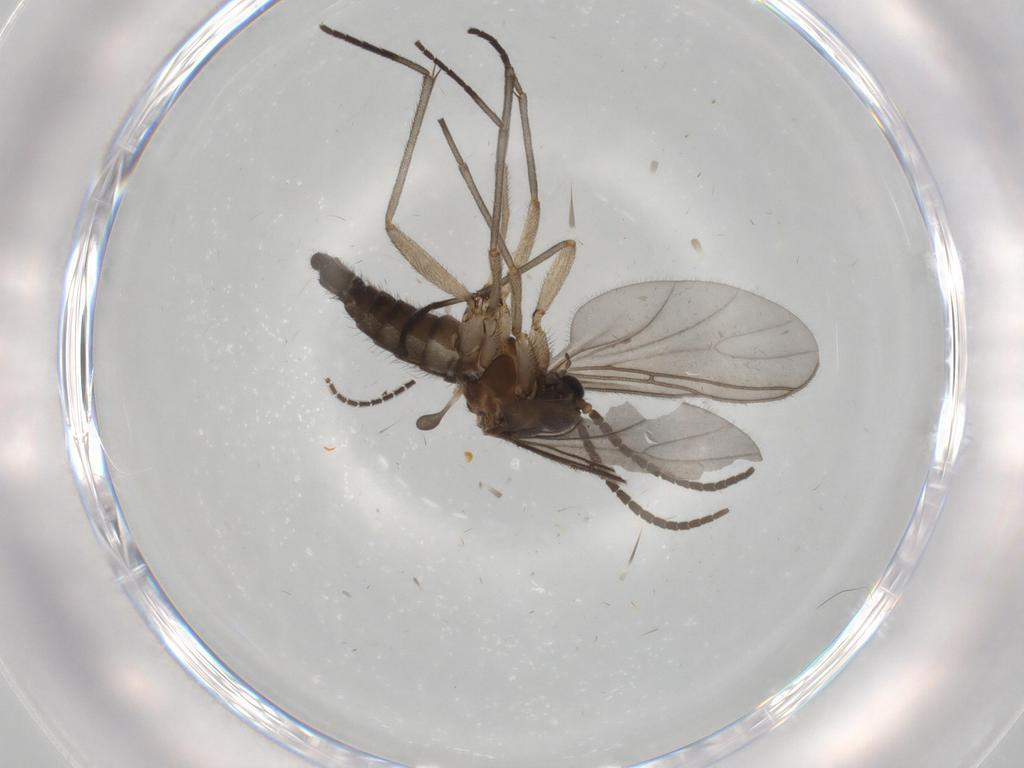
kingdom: Animalia
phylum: Arthropoda
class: Insecta
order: Diptera
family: Sciaridae
